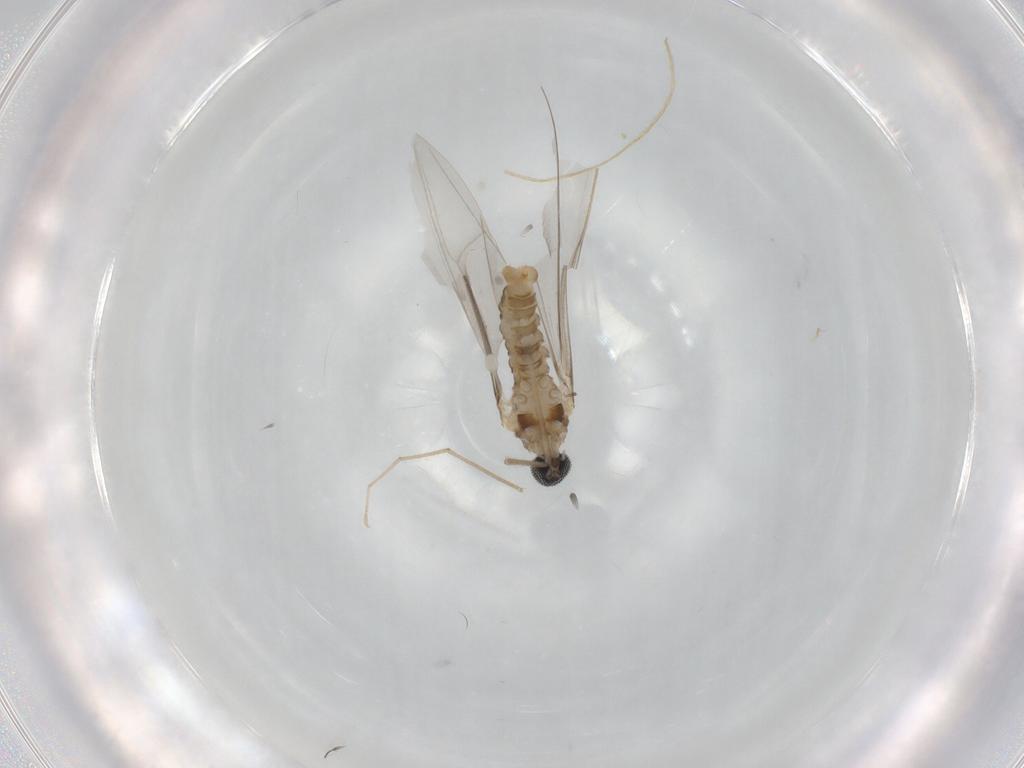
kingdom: Animalia
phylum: Arthropoda
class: Insecta
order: Diptera
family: Cecidomyiidae
